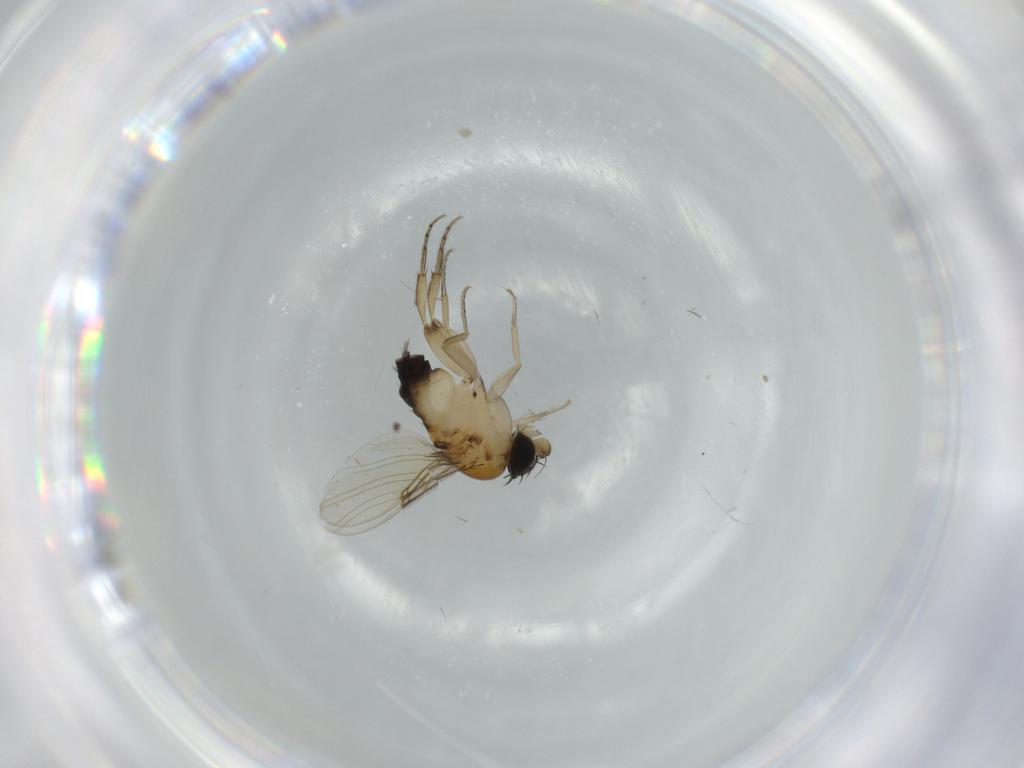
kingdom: Animalia
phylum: Arthropoda
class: Insecta
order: Diptera
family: Phoridae
